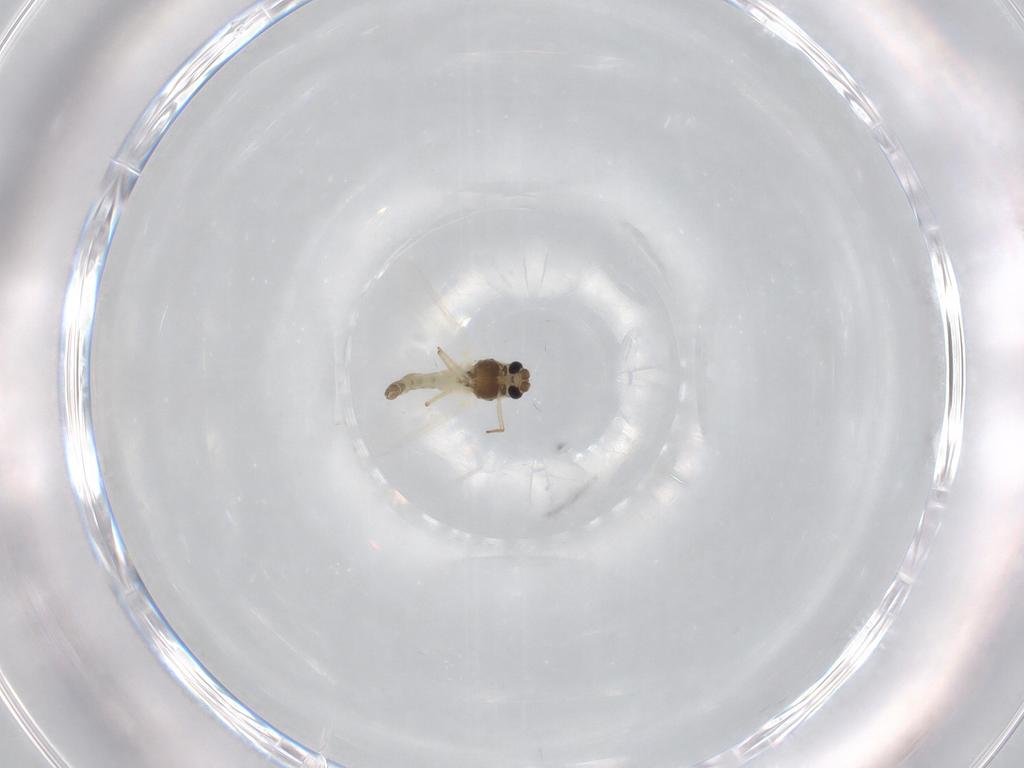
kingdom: Animalia
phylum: Arthropoda
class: Insecta
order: Diptera
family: Chironomidae
